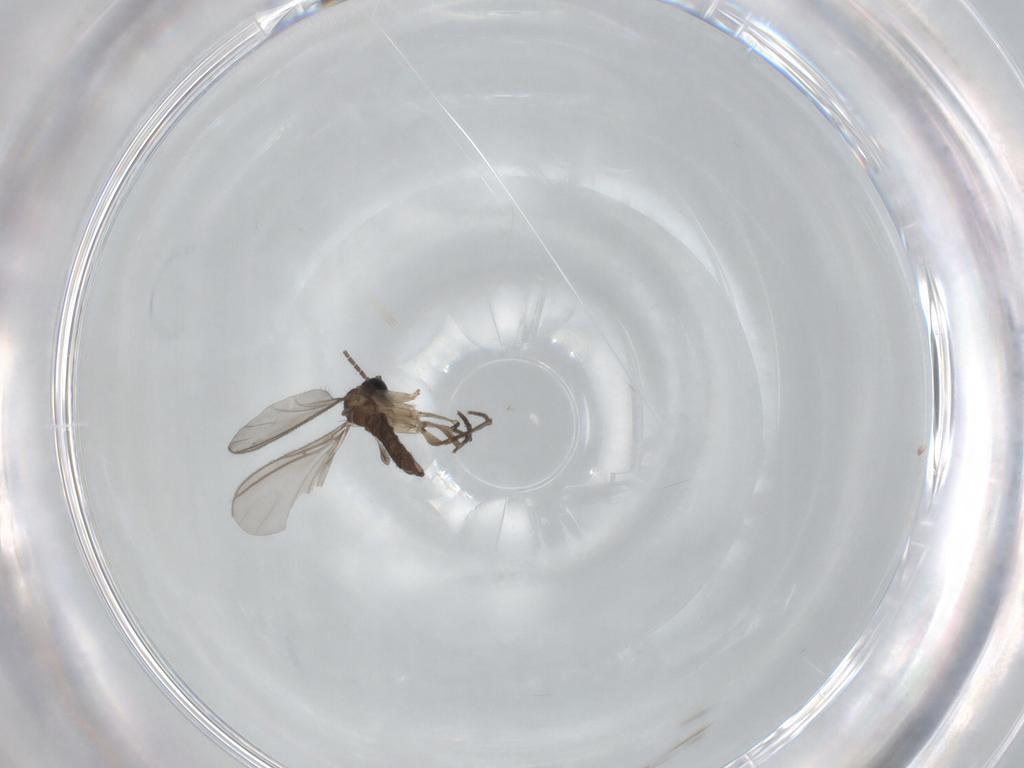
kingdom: Animalia
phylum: Arthropoda
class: Insecta
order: Diptera
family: Sciaridae
